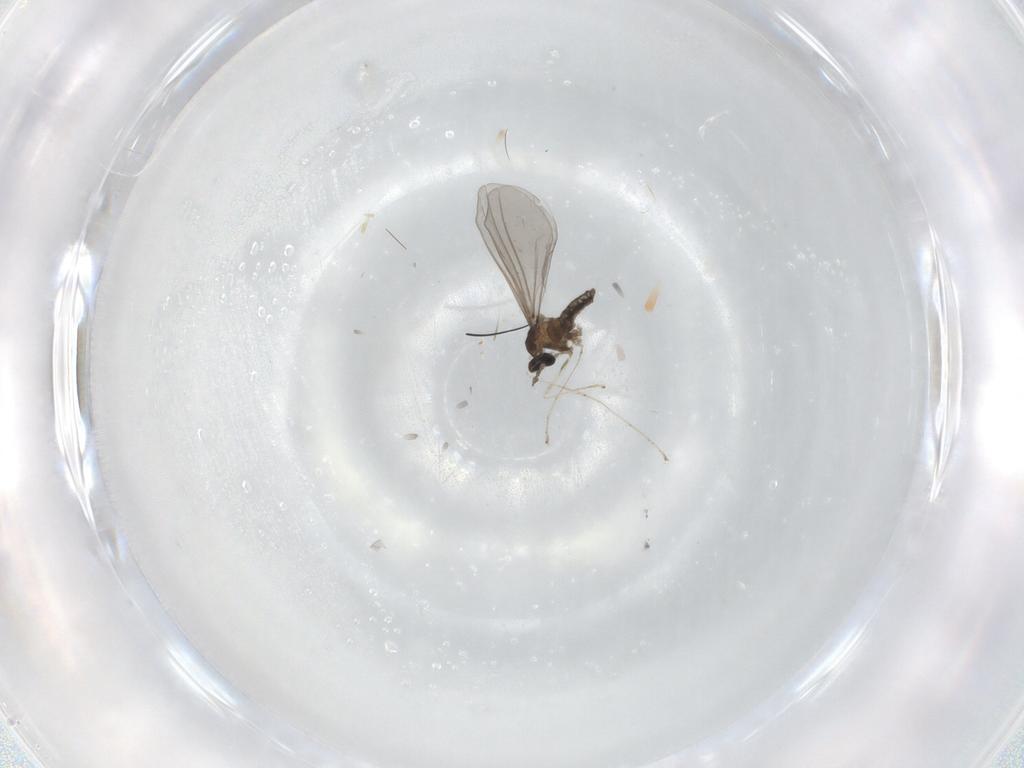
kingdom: Animalia
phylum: Arthropoda
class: Insecta
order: Diptera
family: Cecidomyiidae
